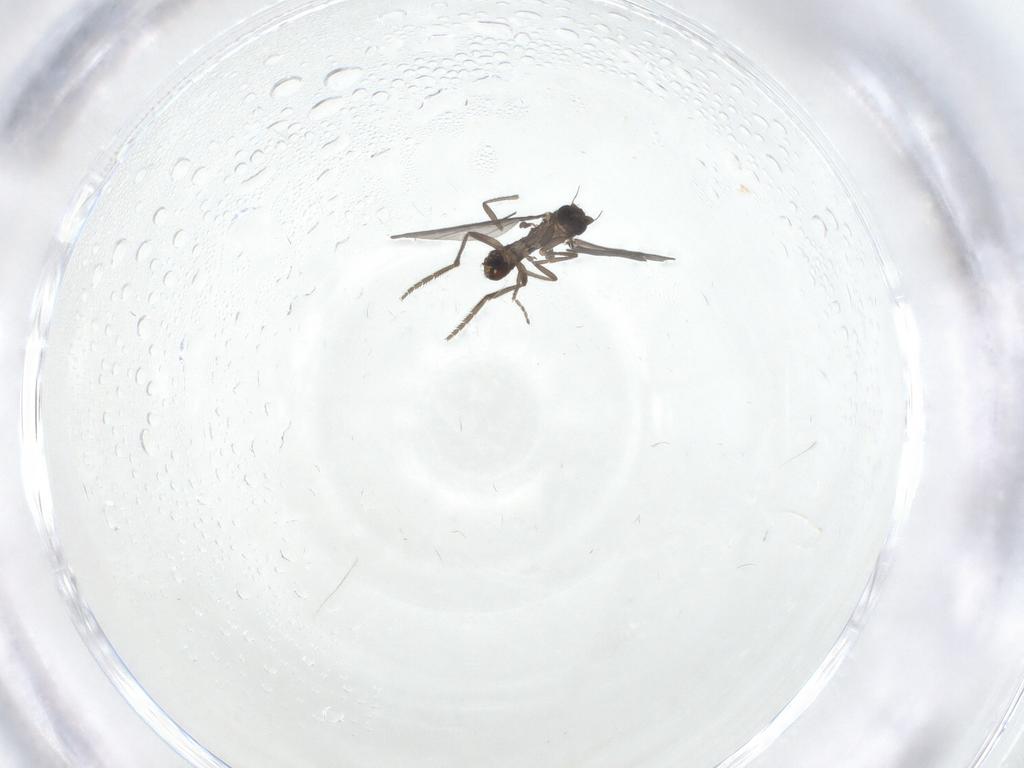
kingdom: Animalia
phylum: Arthropoda
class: Insecta
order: Diptera
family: Phoridae
